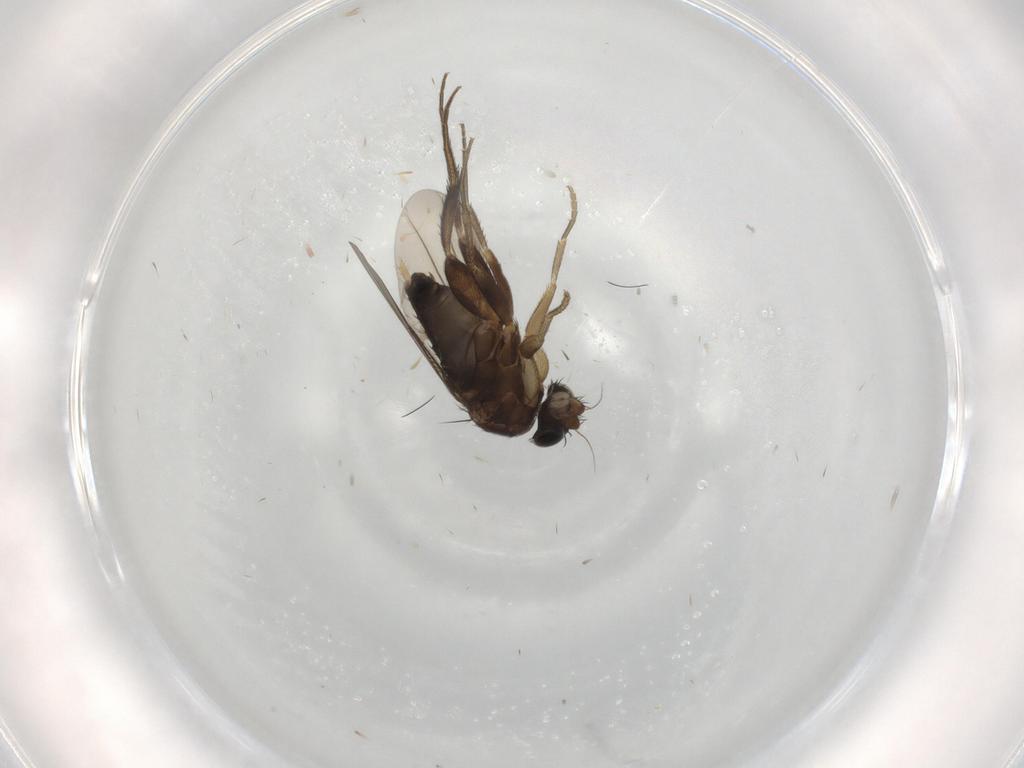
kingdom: Animalia
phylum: Arthropoda
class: Insecta
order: Diptera
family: Phoridae
